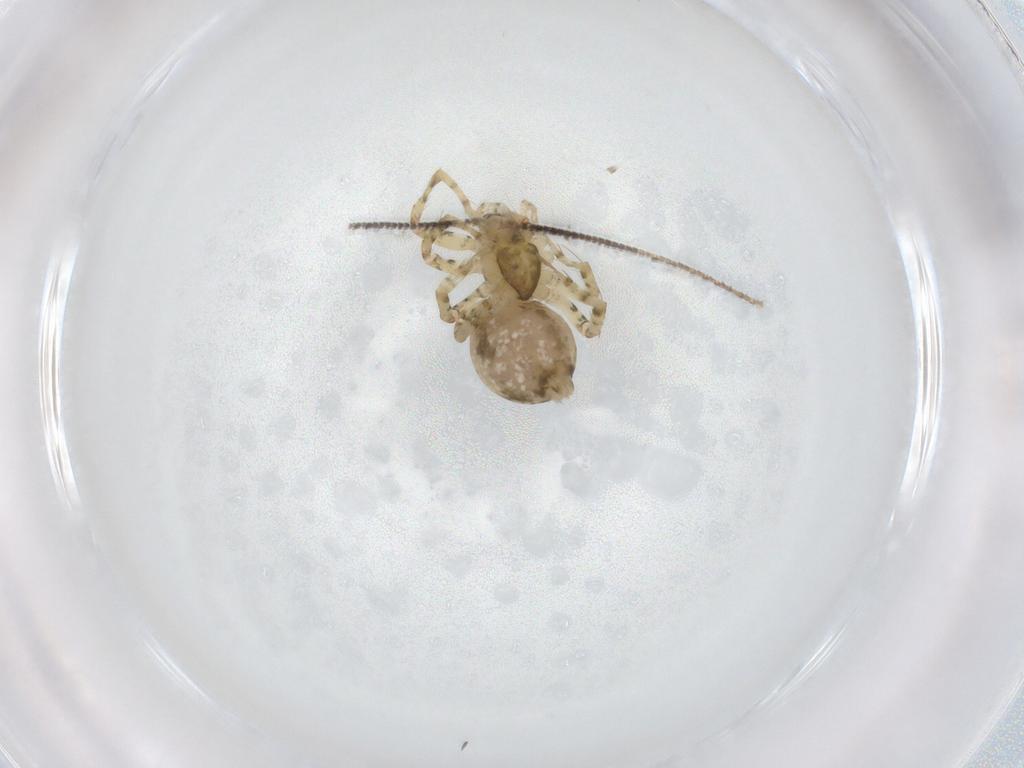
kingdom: Animalia
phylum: Arthropoda
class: Arachnida
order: Araneae
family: Theridiidae
